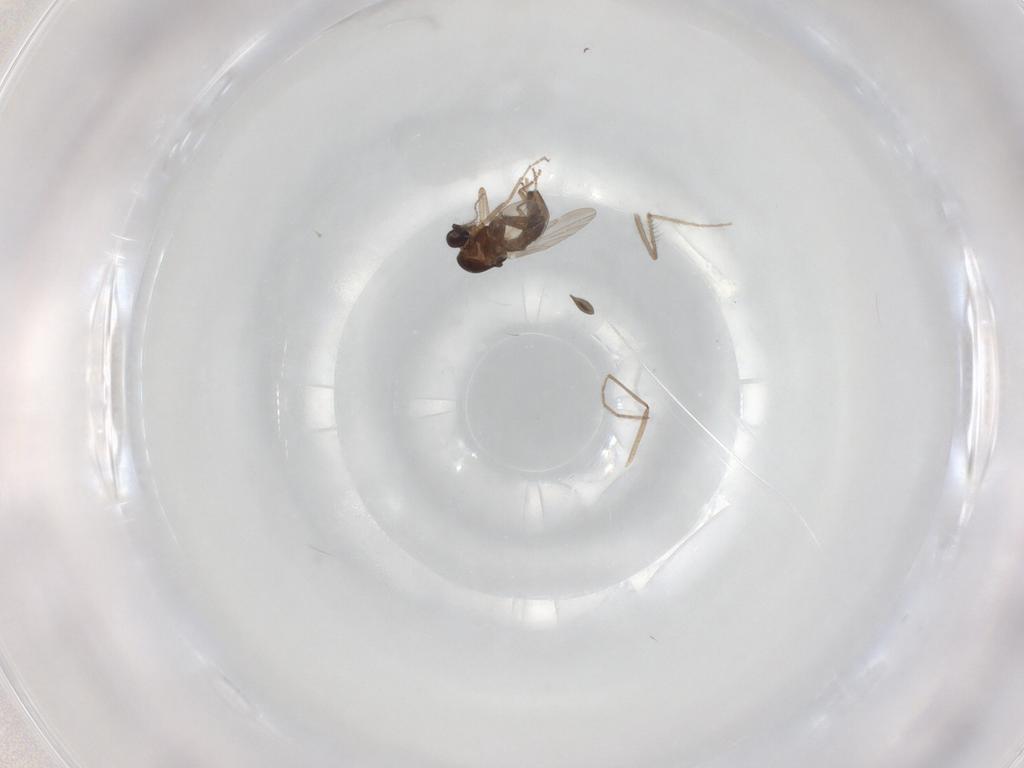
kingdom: Animalia
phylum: Arthropoda
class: Insecta
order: Diptera
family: Chironomidae
